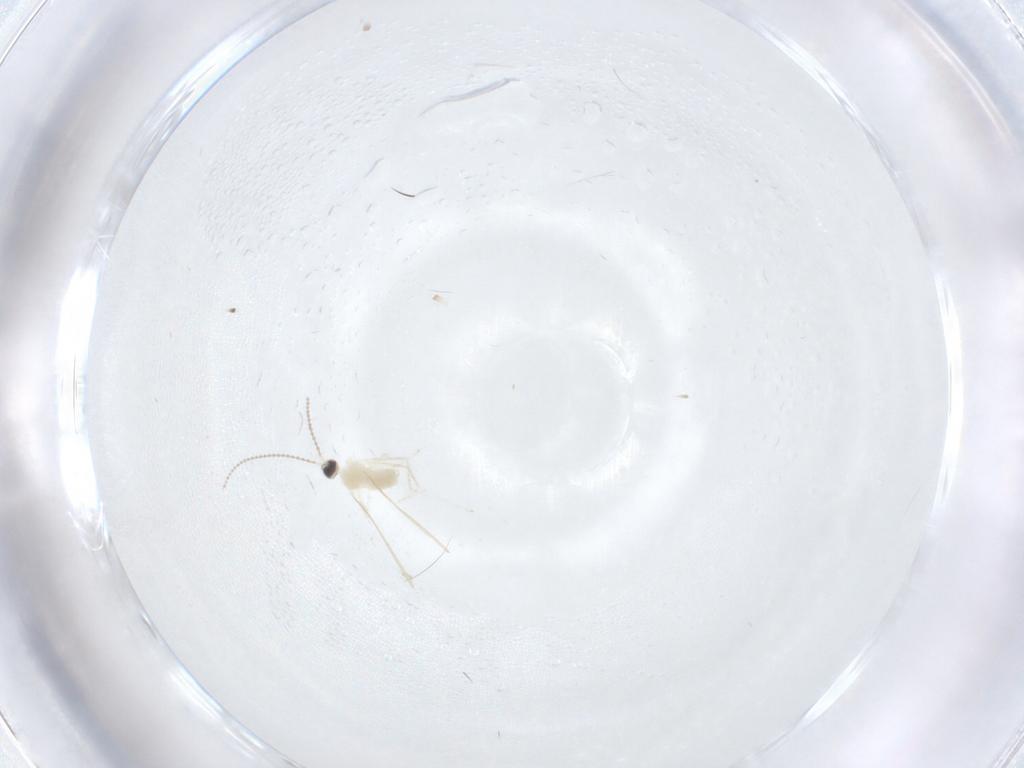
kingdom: Animalia
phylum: Arthropoda
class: Insecta
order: Diptera
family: Cecidomyiidae
